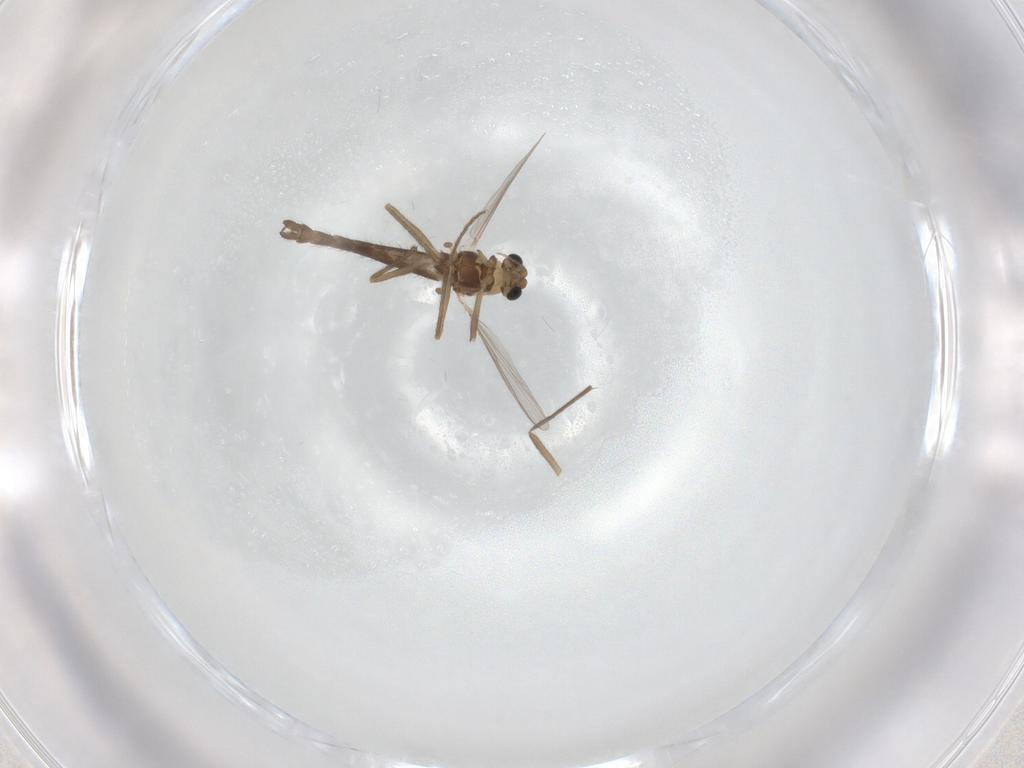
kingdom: Animalia
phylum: Arthropoda
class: Insecta
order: Diptera
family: Chironomidae
